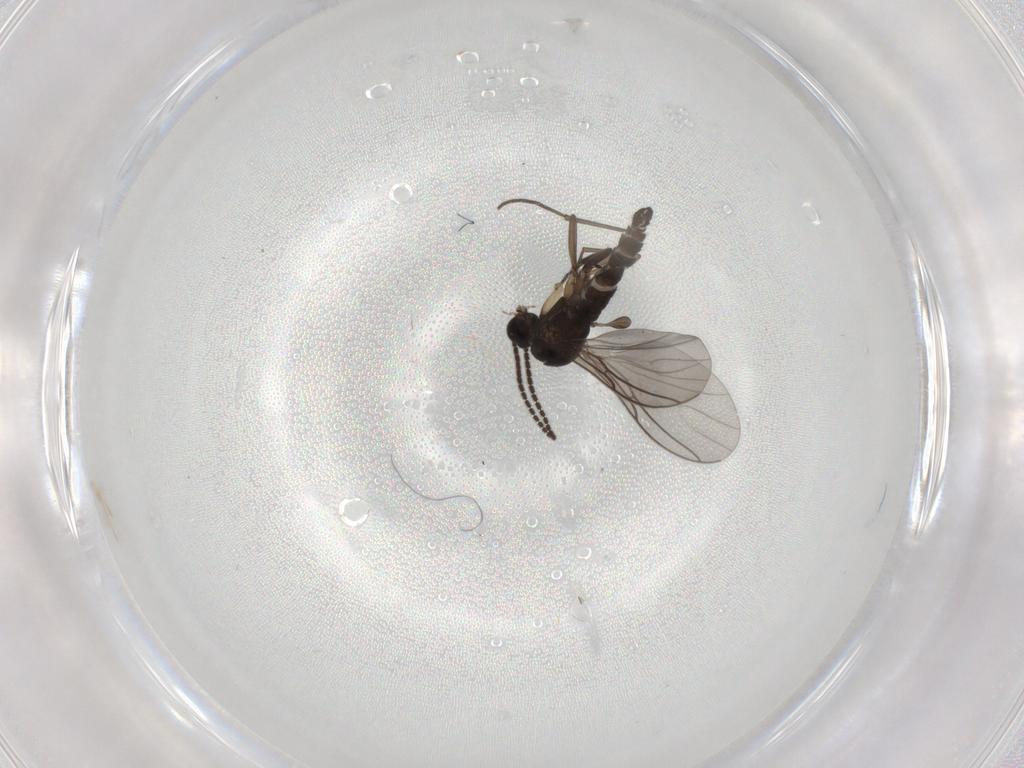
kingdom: Animalia
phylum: Arthropoda
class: Insecta
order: Diptera
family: Sciaridae
